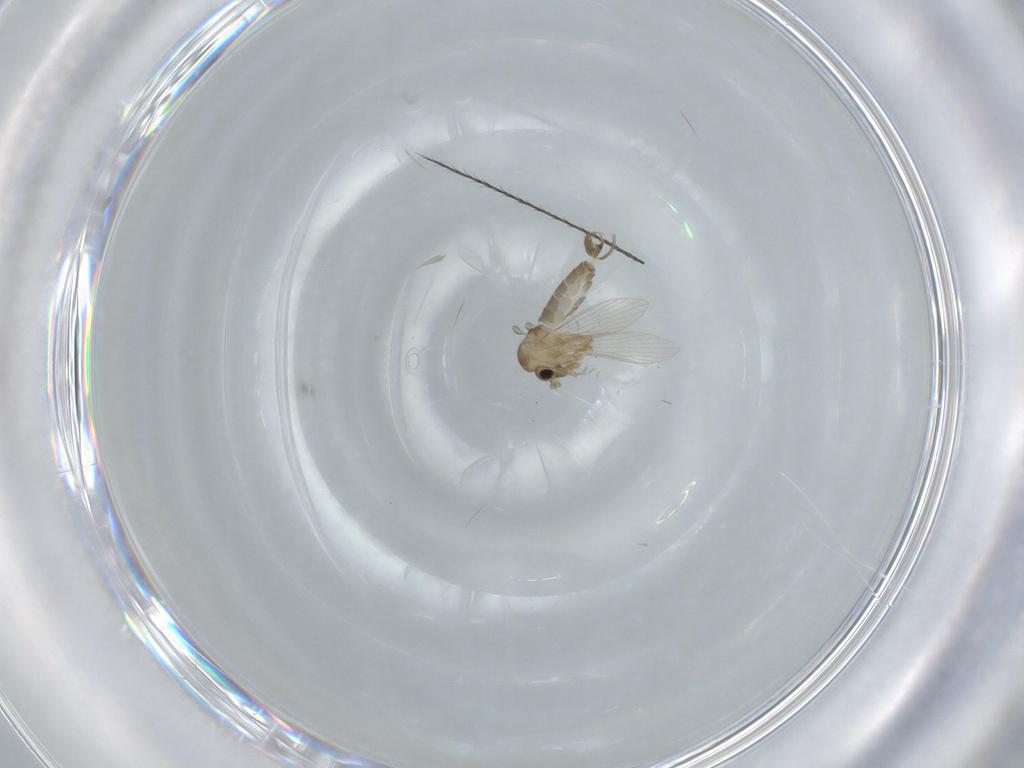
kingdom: Animalia
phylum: Arthropoda
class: Insecta
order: Diptera
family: Psychodidae
